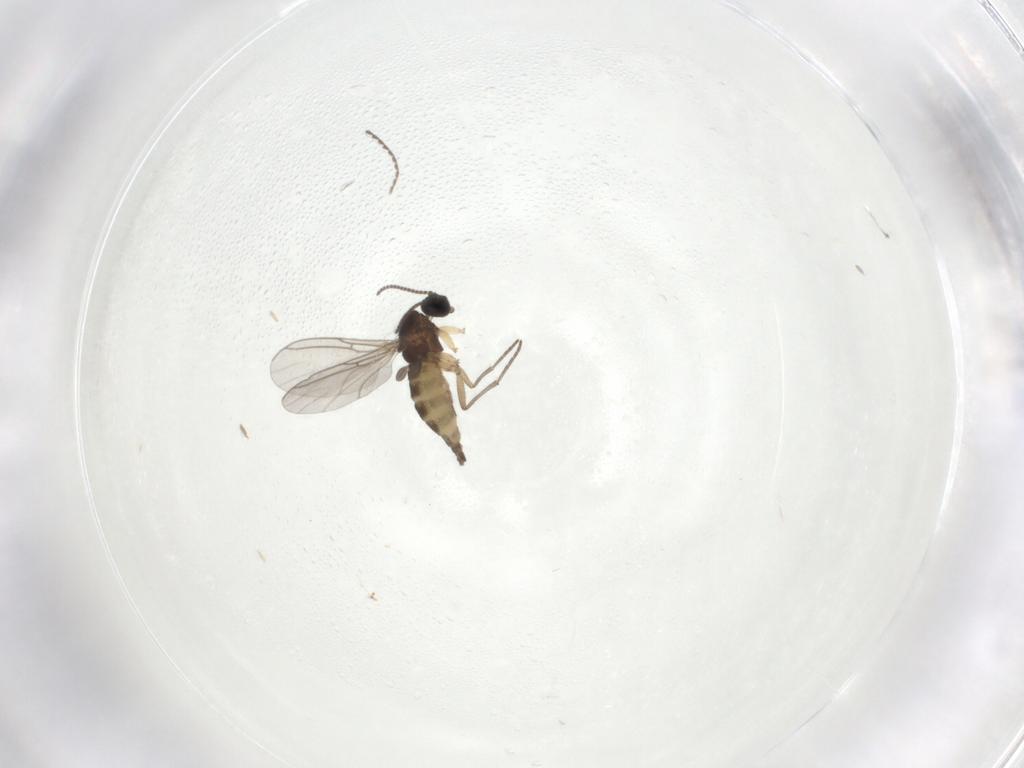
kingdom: Animalia
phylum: Arthropoda
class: Insecta
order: Diptera
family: Sciaridae
